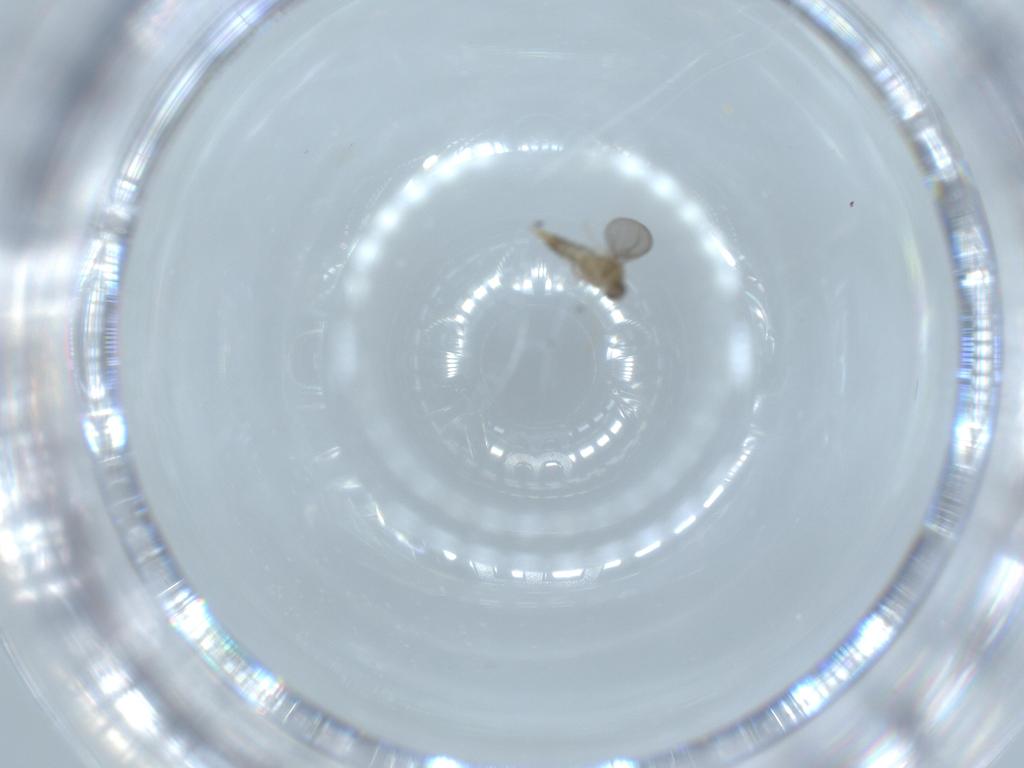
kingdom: Animalia
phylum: Arthropoda
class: Insecta
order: Diptera
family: Cecidomyiidae
